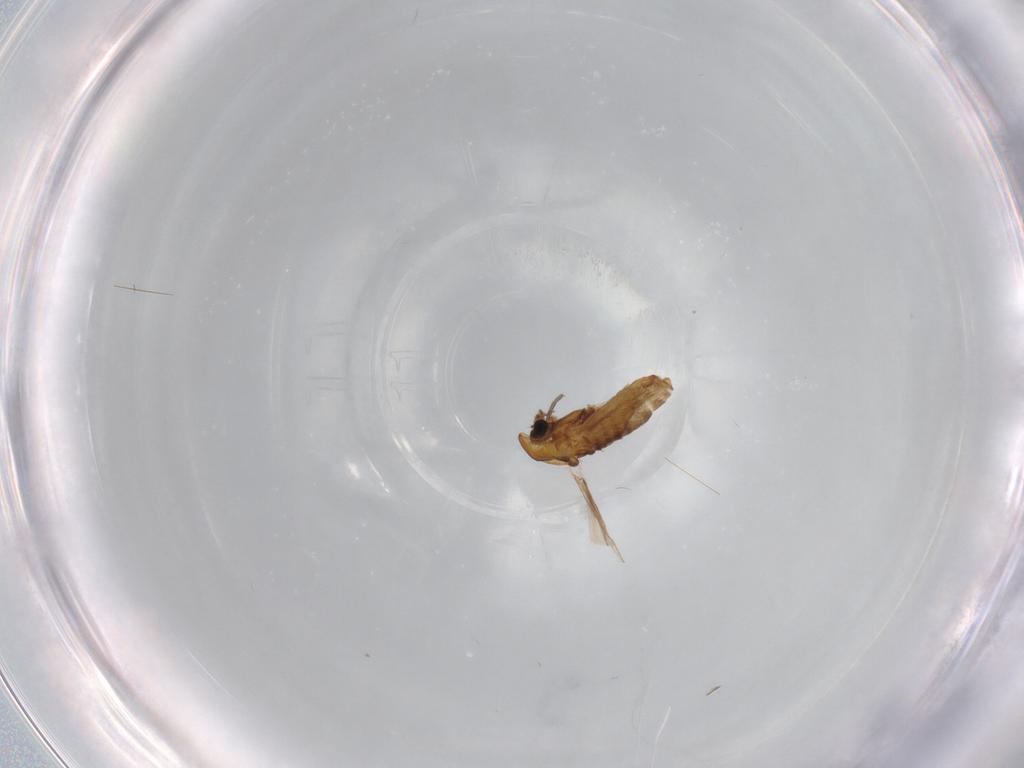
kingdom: Animalia
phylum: Arthropoda
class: Insecta
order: Diptera
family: Chironomidae
